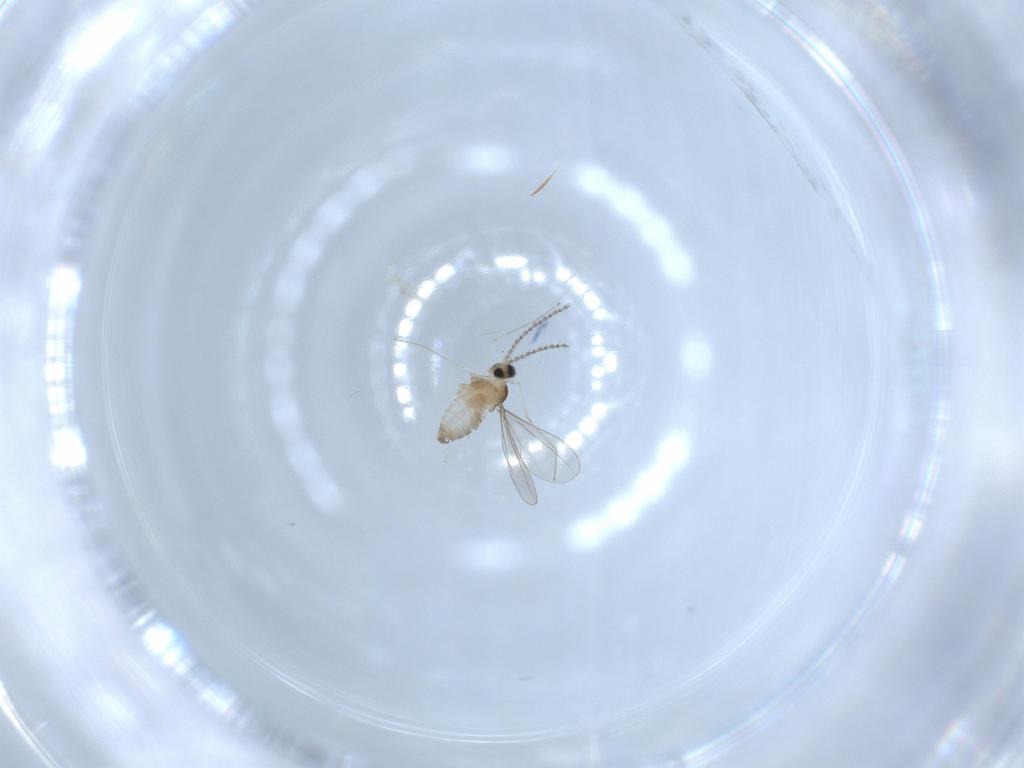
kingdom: Animalia
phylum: Arthropoda
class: Insecta
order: Diptera
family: Cecidomyiidae
